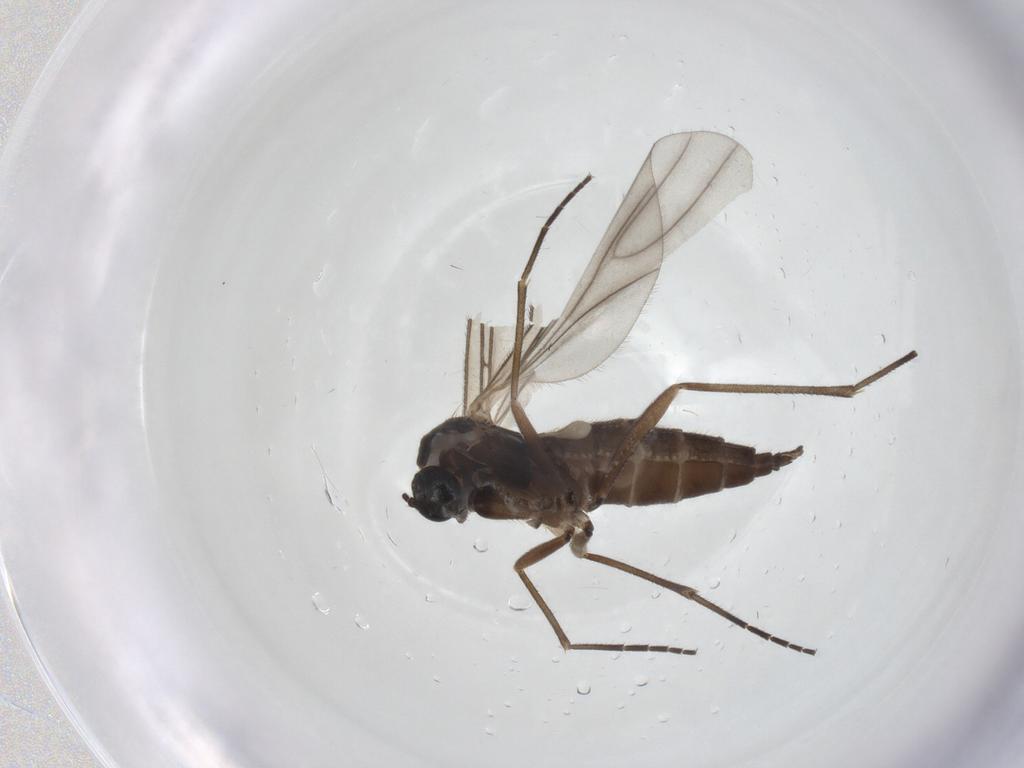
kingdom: Animalia
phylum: Arthropoda
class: Insecta
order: Diptera
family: Sciaridae
